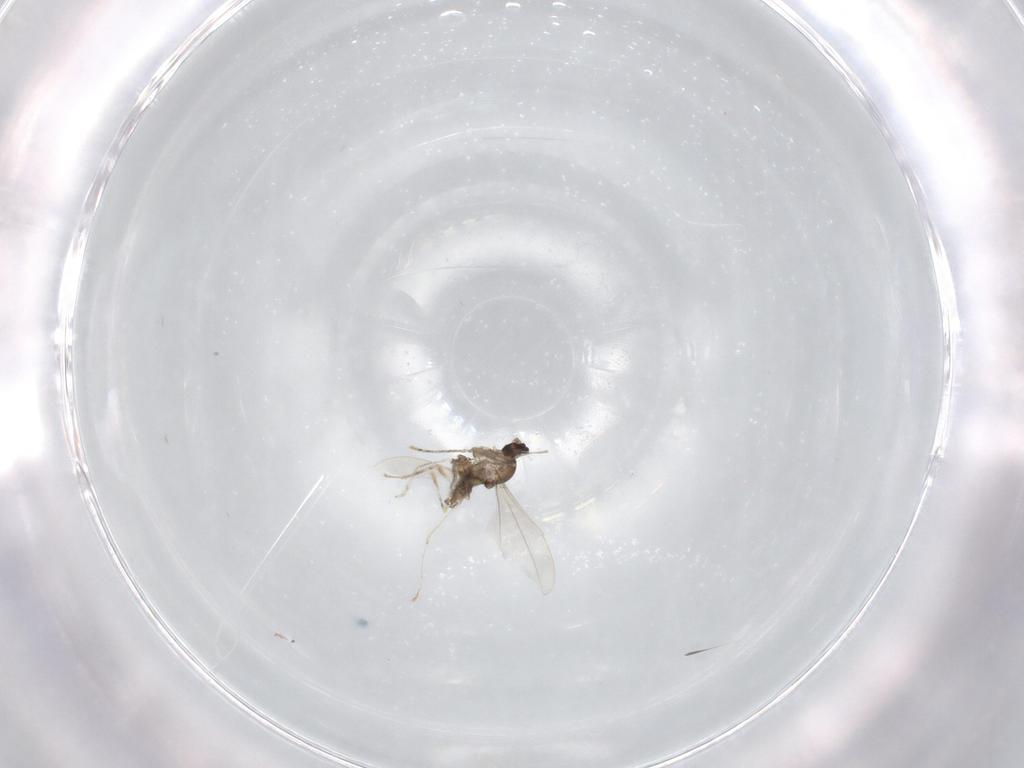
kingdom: Animalia
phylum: Arthropoda
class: Insecta
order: Diptera
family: Cecidomyiidae
